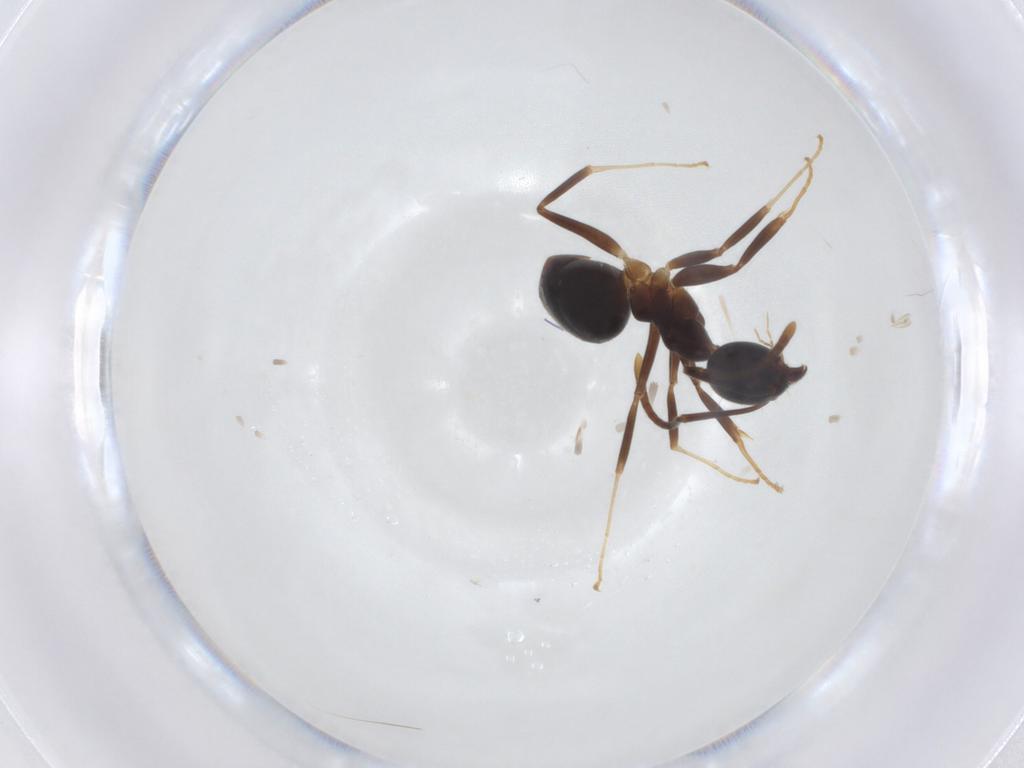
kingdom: Animalia
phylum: Arthropoda
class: Insecta
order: Hymenoptera
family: Formicidae
